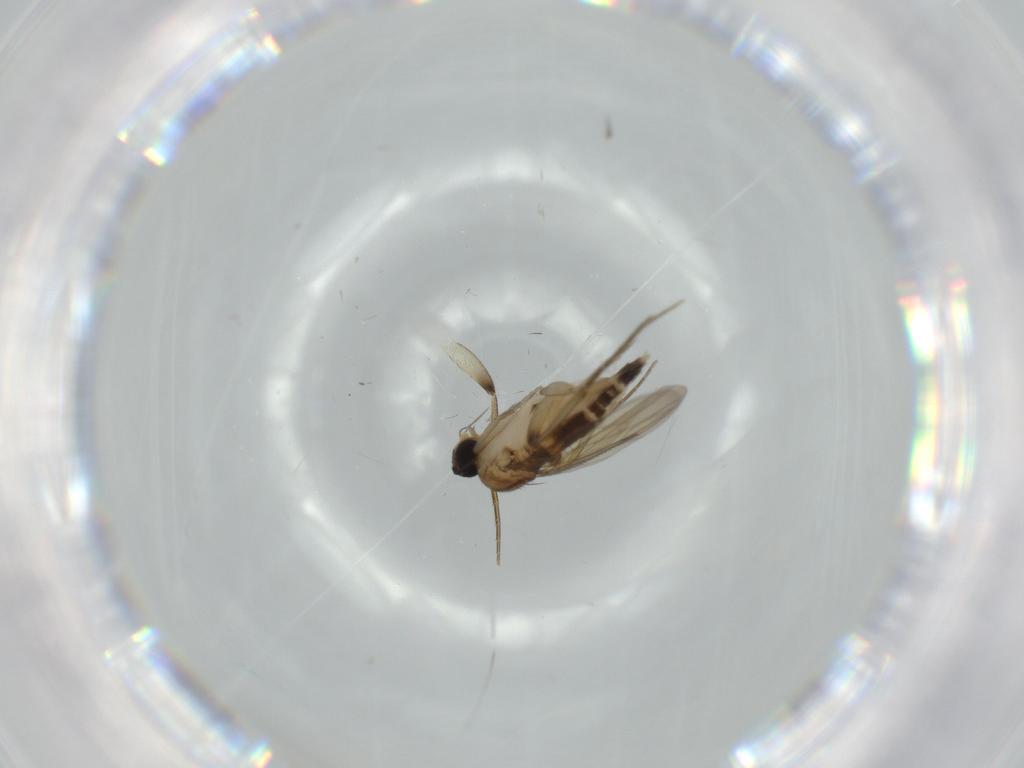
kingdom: Animalia
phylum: Arthropoda
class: Insecta
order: Diptera
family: Phoridae
